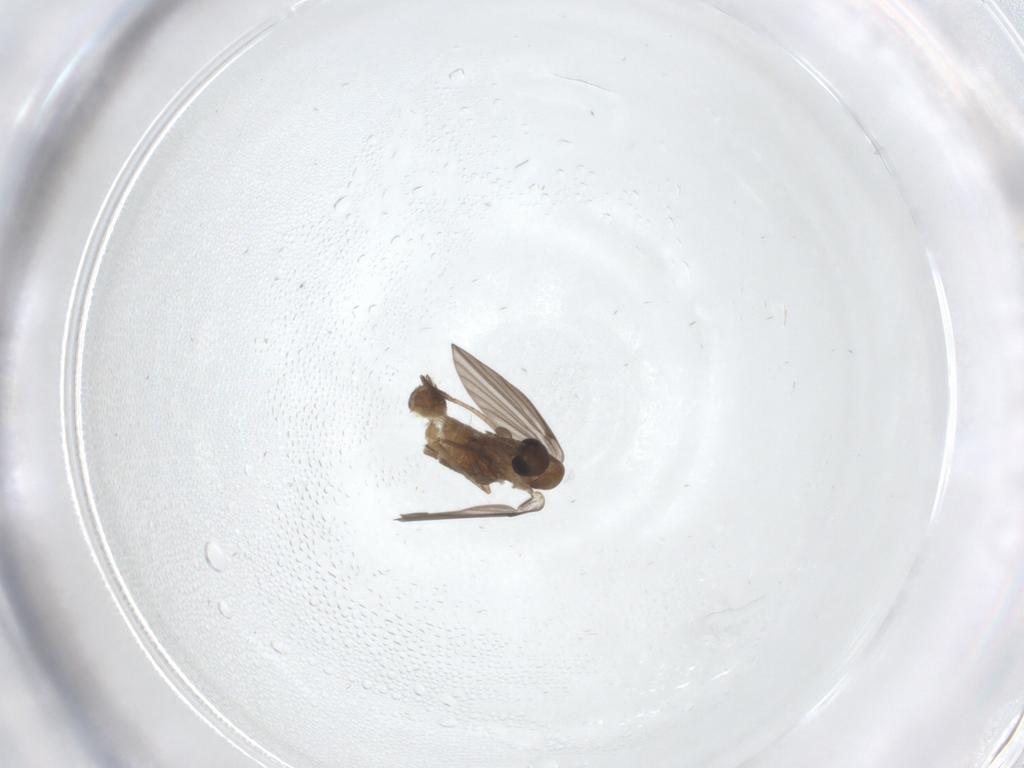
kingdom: Animalia
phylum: Arthropoda
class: Insecta
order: Diptera
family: Psychodidae
